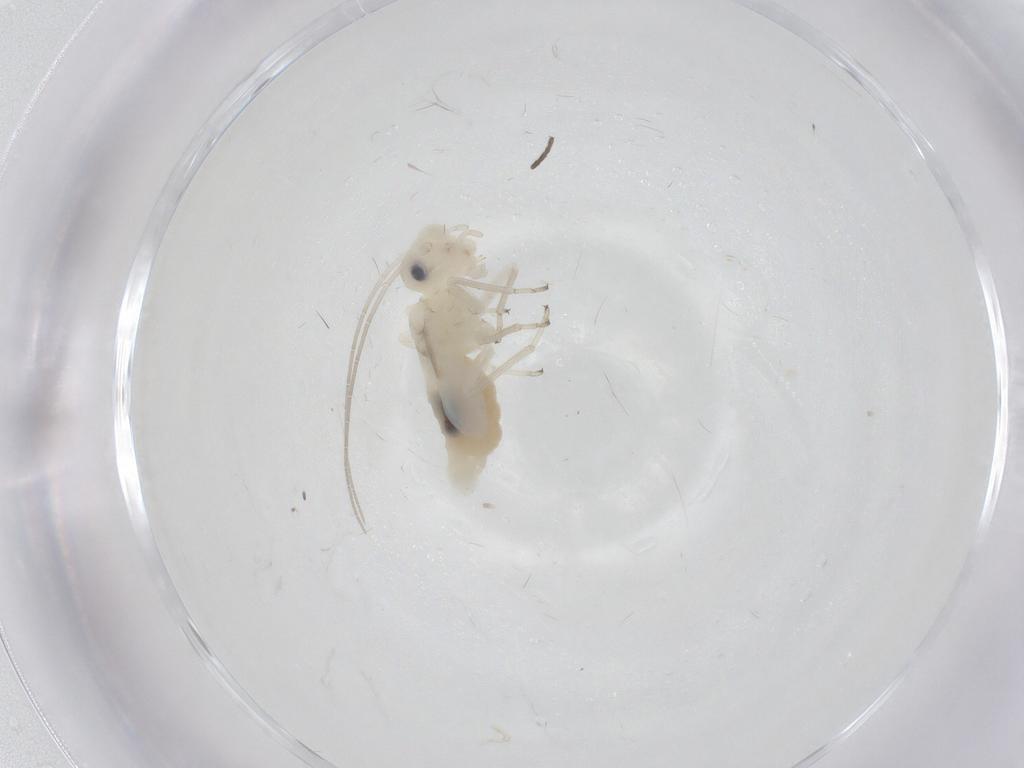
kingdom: Animalia
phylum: Arthropoda
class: Insecta
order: Psocodea
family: Caeciliusidae
